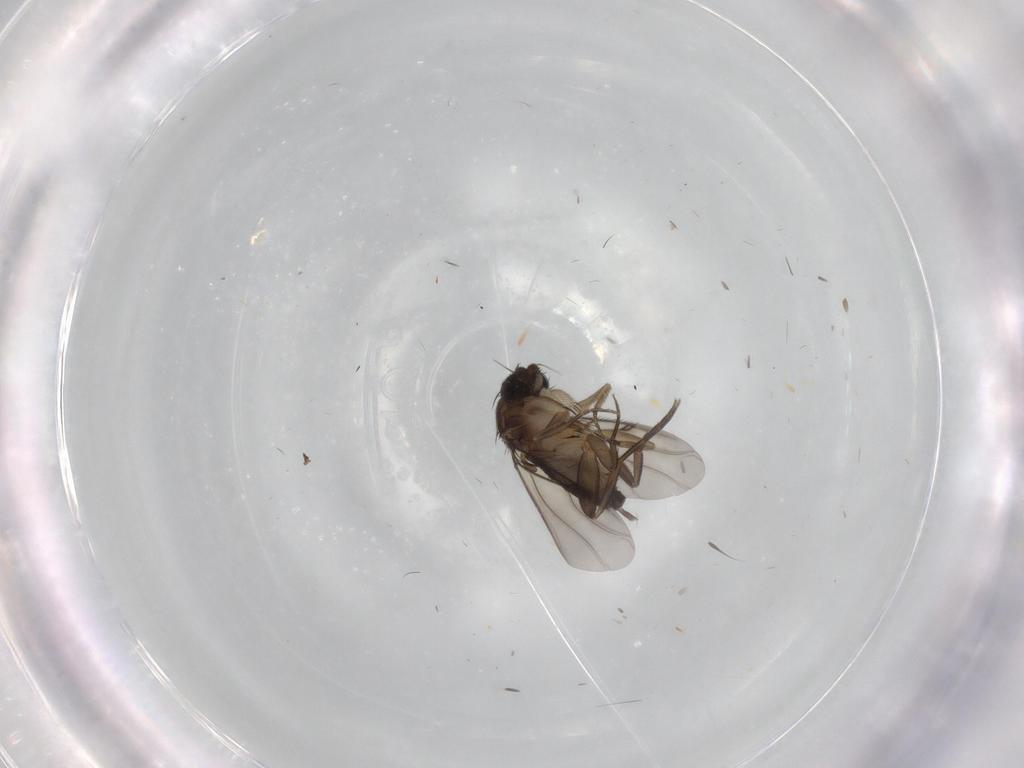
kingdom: Animalia
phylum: Arthropoda
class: Insecta
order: Diptera
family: Phoridae
